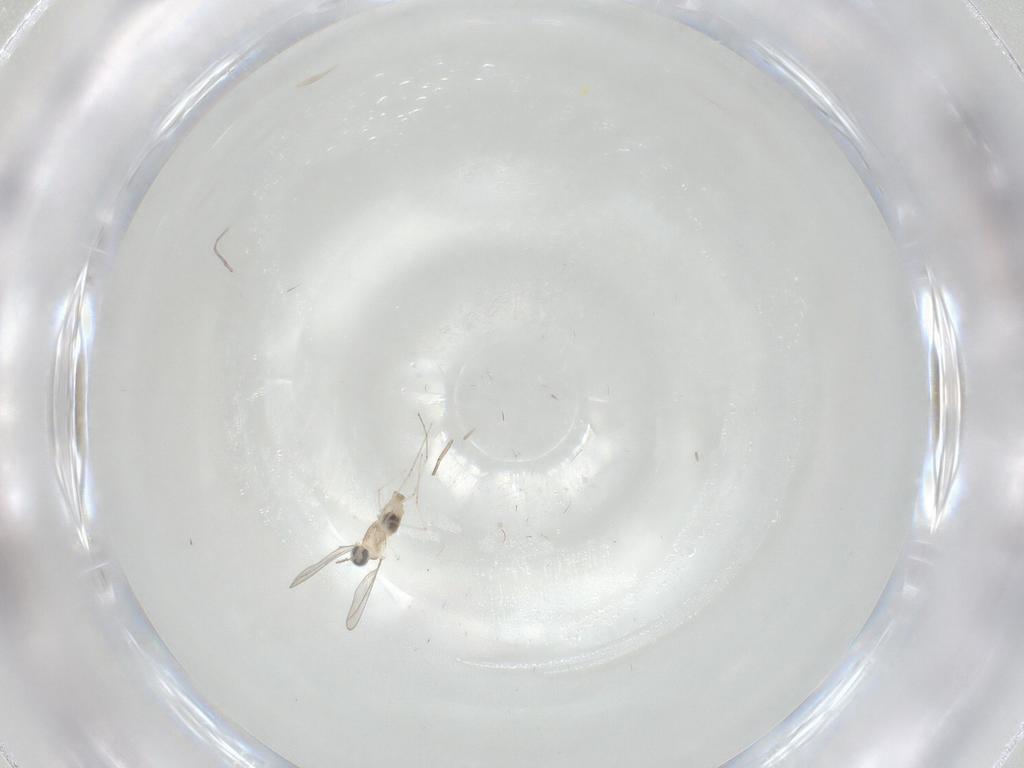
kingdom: Animalia
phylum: Arthropoda
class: Insecta
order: Diptera
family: Cecidomyiidae
